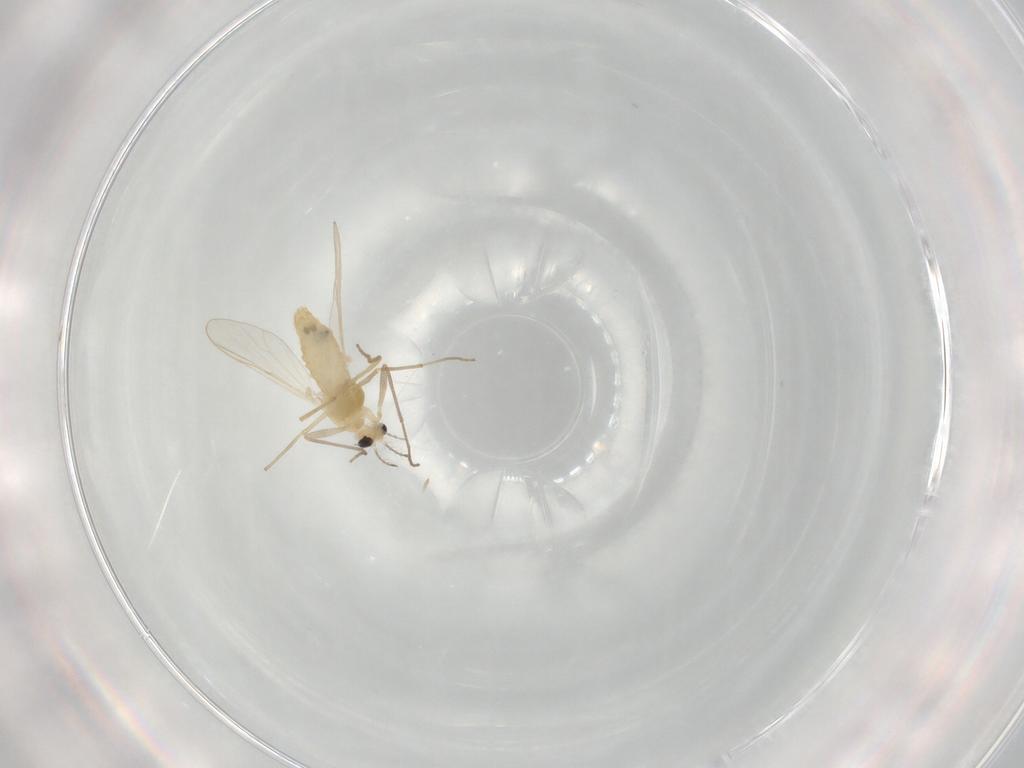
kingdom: Animalia
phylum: Arthropoda
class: Insecta
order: Diptera
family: Chironomidae
